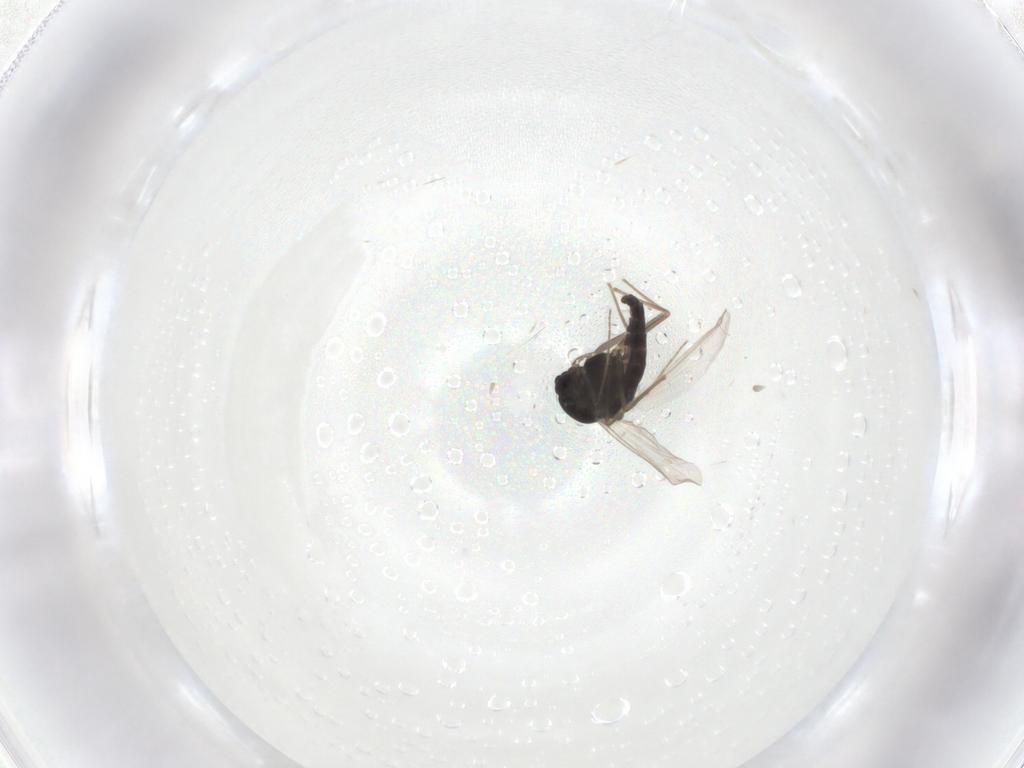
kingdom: Animalia
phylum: Arthropoda
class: Insecta
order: Diptera
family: Chironomidae
